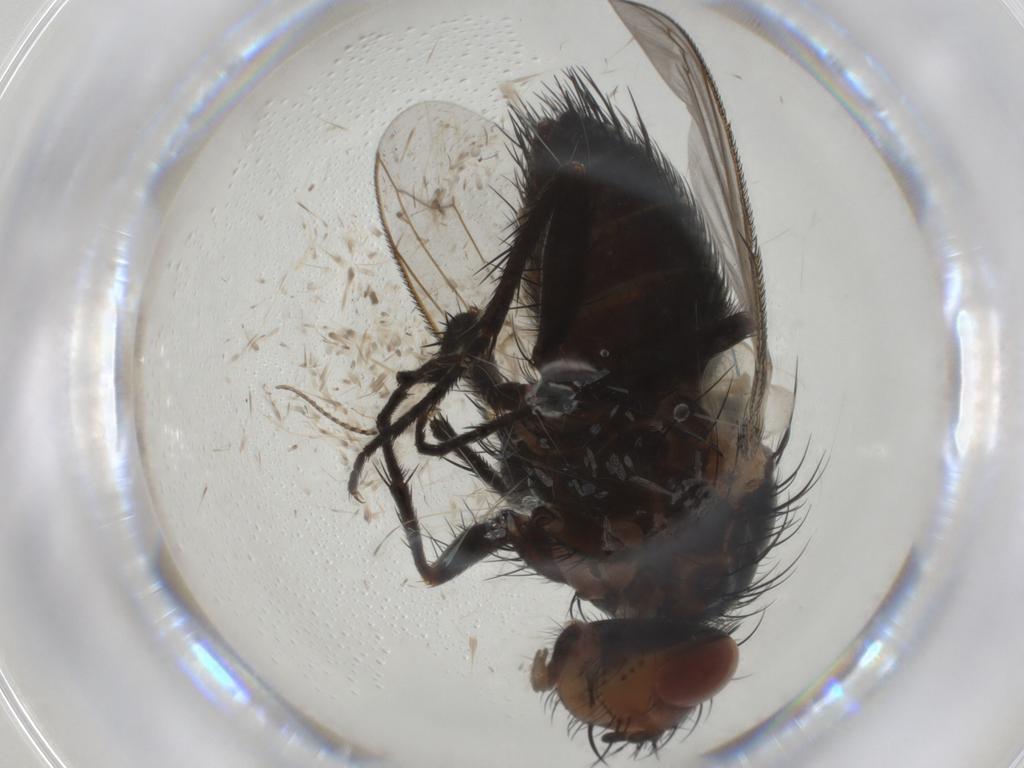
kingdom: Animalia
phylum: Arthropoda
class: Insecta
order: Diptera
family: Tachinidae
